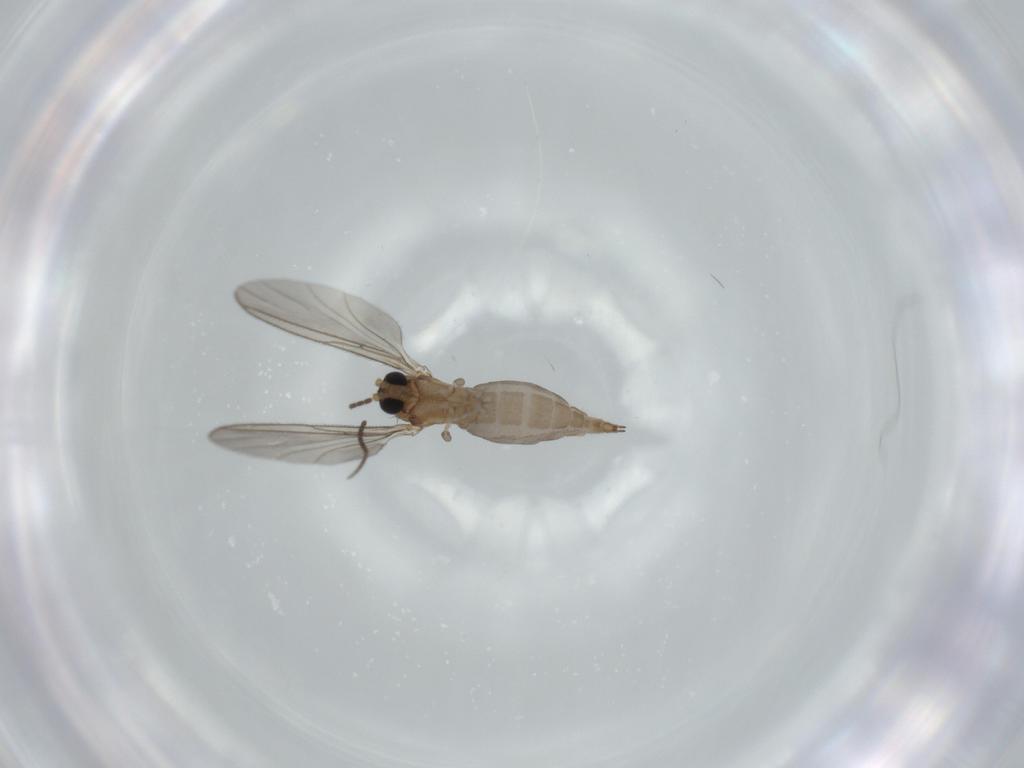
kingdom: Animalia
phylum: Arthropoda
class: Insecta
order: Diptera
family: Sciaridae
